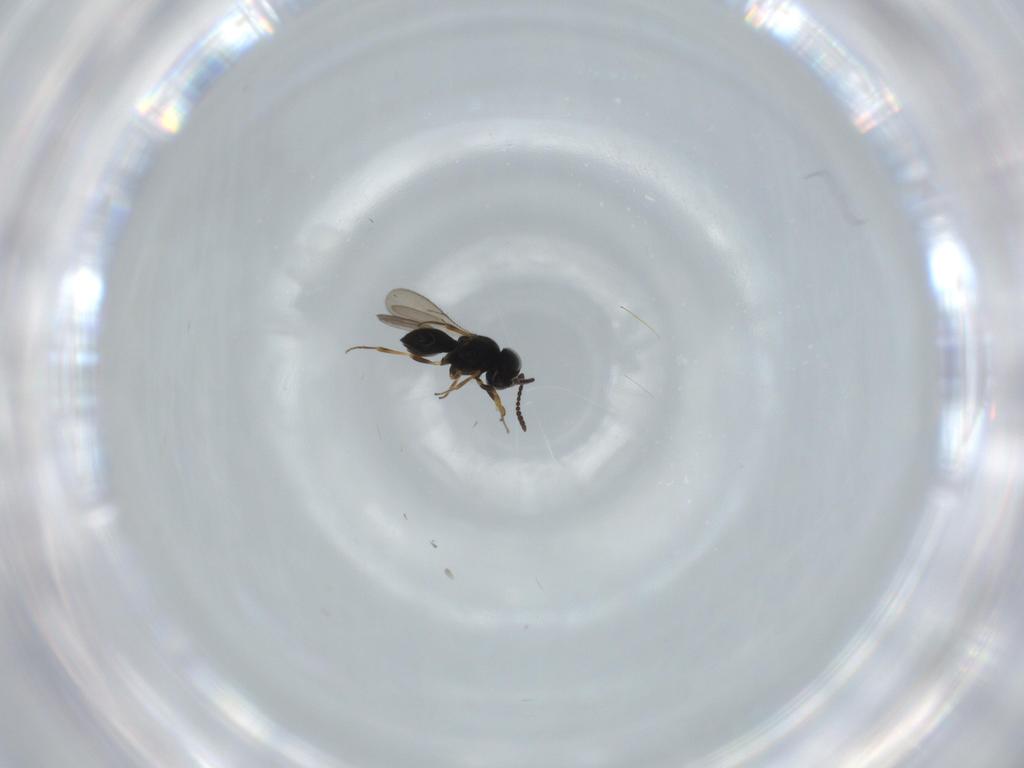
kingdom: Animalia
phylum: Arthropoda
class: Insecta
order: Hymenoptera
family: Scelionidae
